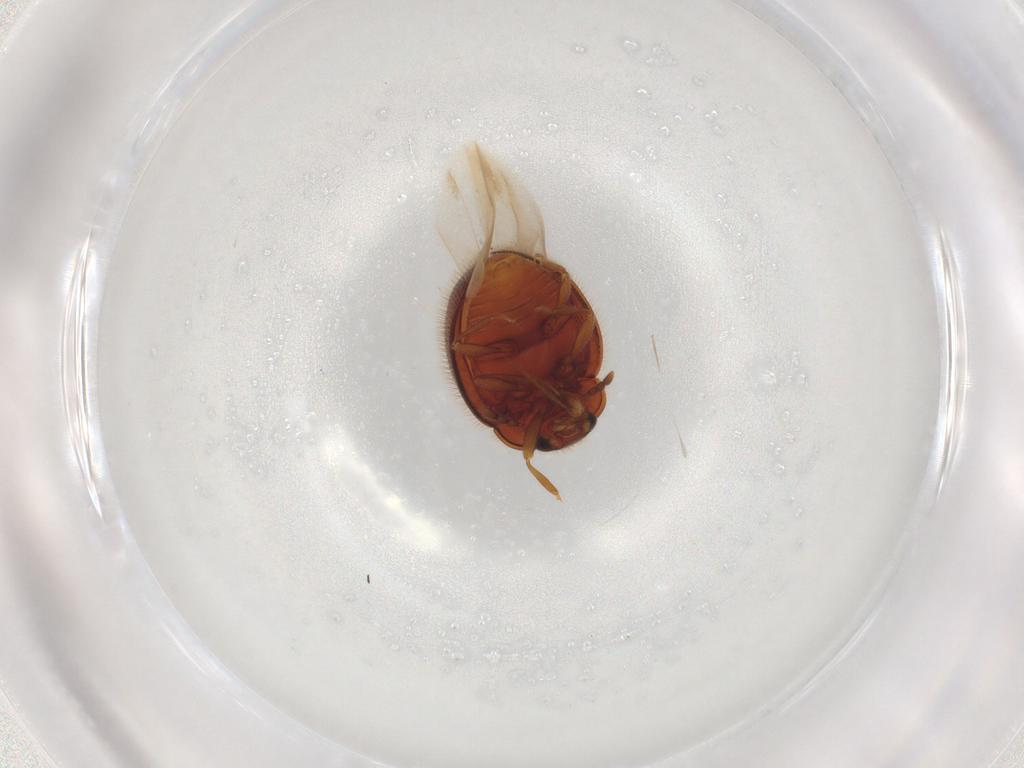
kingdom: Animalia
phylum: Arthropoda
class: Insecta
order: Coleoptera
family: Anamorphidae
